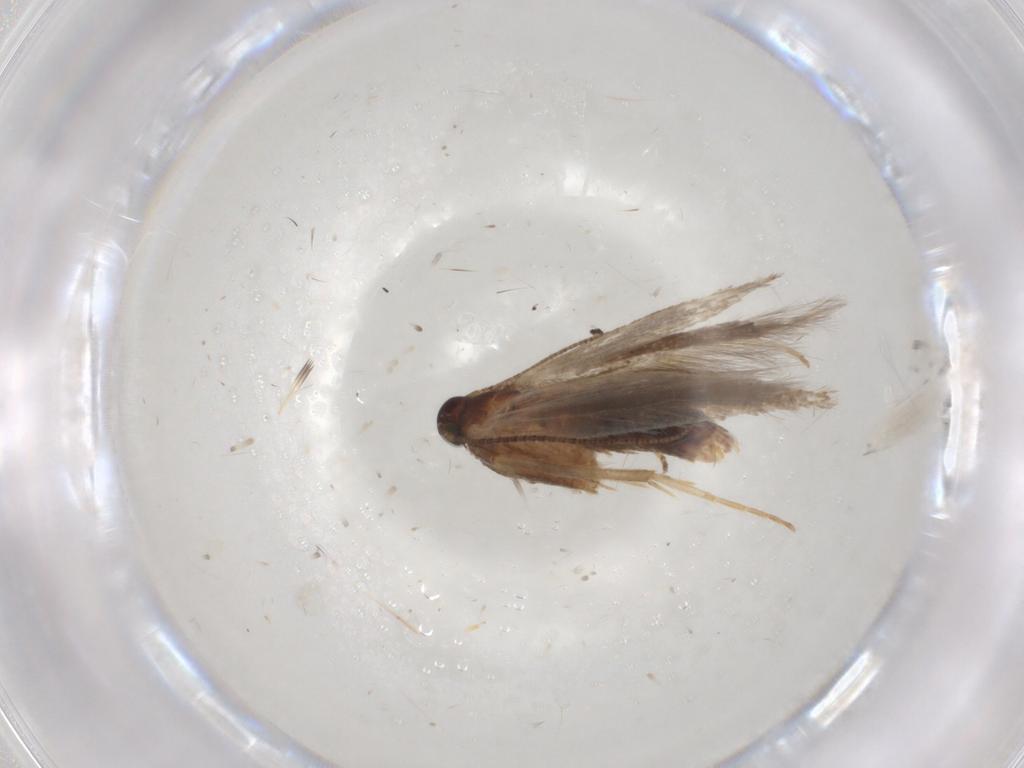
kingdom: Animalia
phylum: Arthropoda
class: Insecta
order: Lepidoptera
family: Gelechiidae
